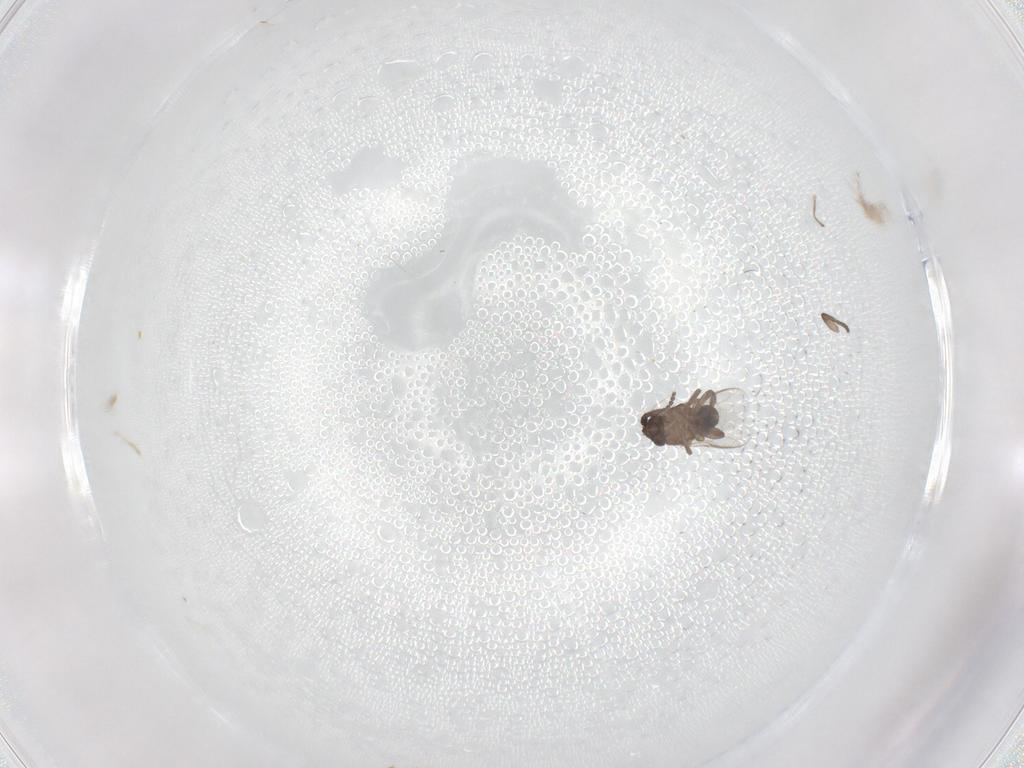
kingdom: Animalia
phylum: Arthropoda
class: Insecta
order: Diptera
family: Sphaeroceridae
